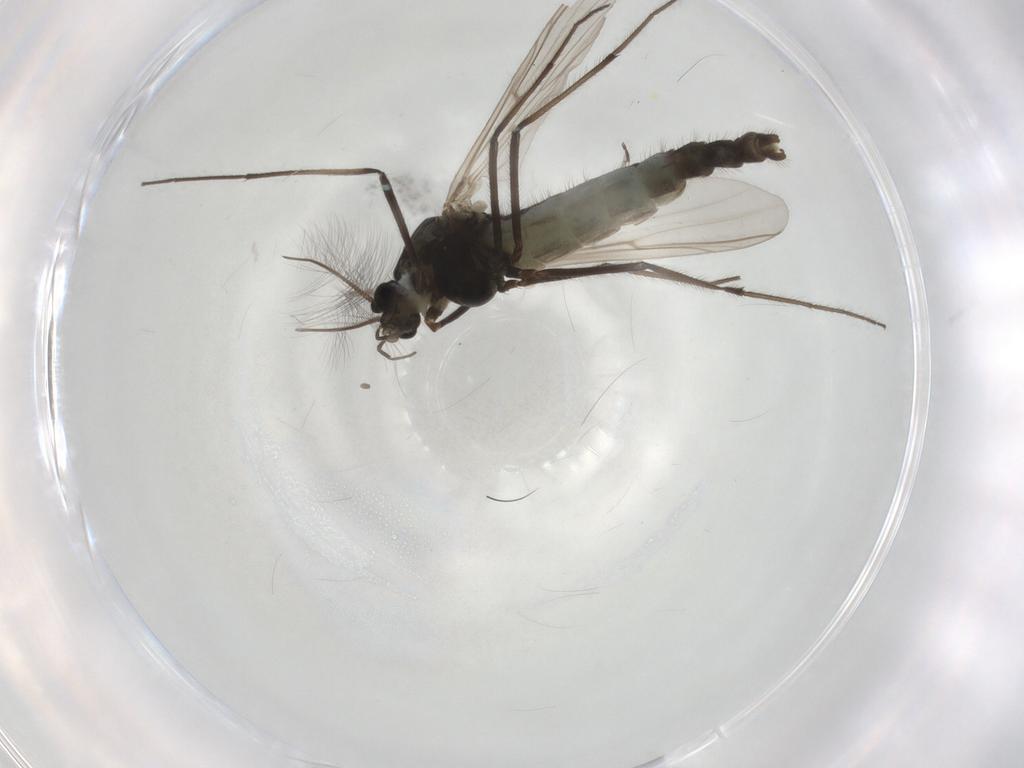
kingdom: Animalia
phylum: Arthropoda
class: Insecta
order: Diptera
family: Chironomidae
